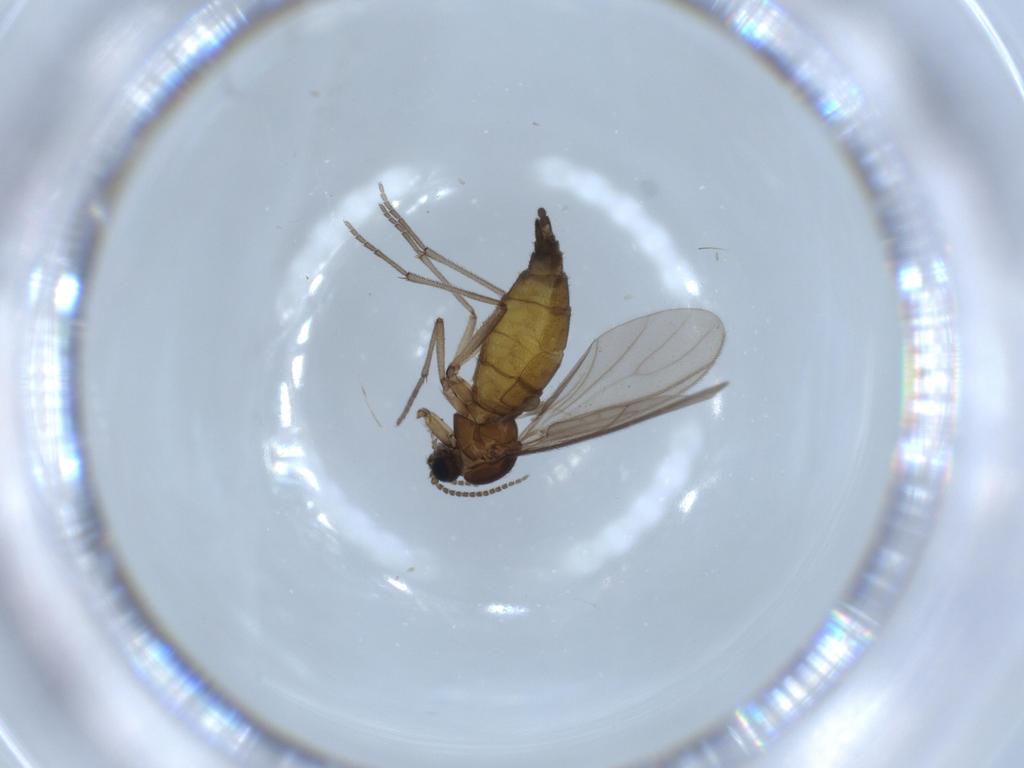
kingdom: Animalia
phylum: Arthropoda
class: Insecta
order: Diptera
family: Sciaridae
